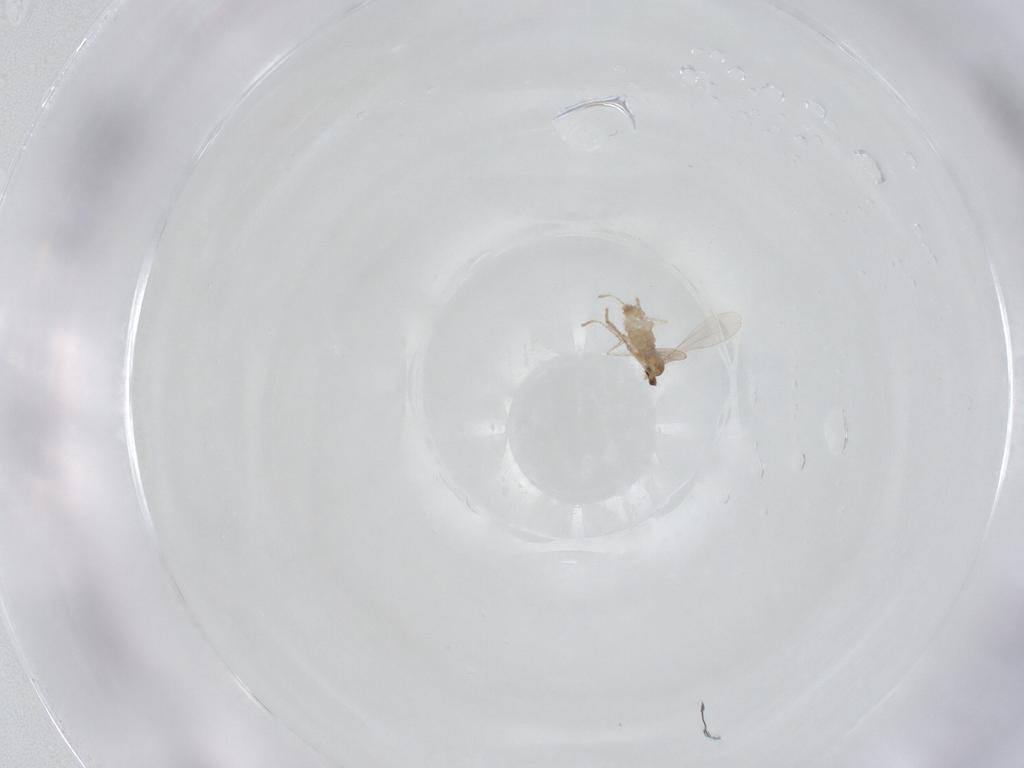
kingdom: Animalia
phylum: Arthropoda
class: Insecta
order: Diptera
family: Cecidomyiidae
